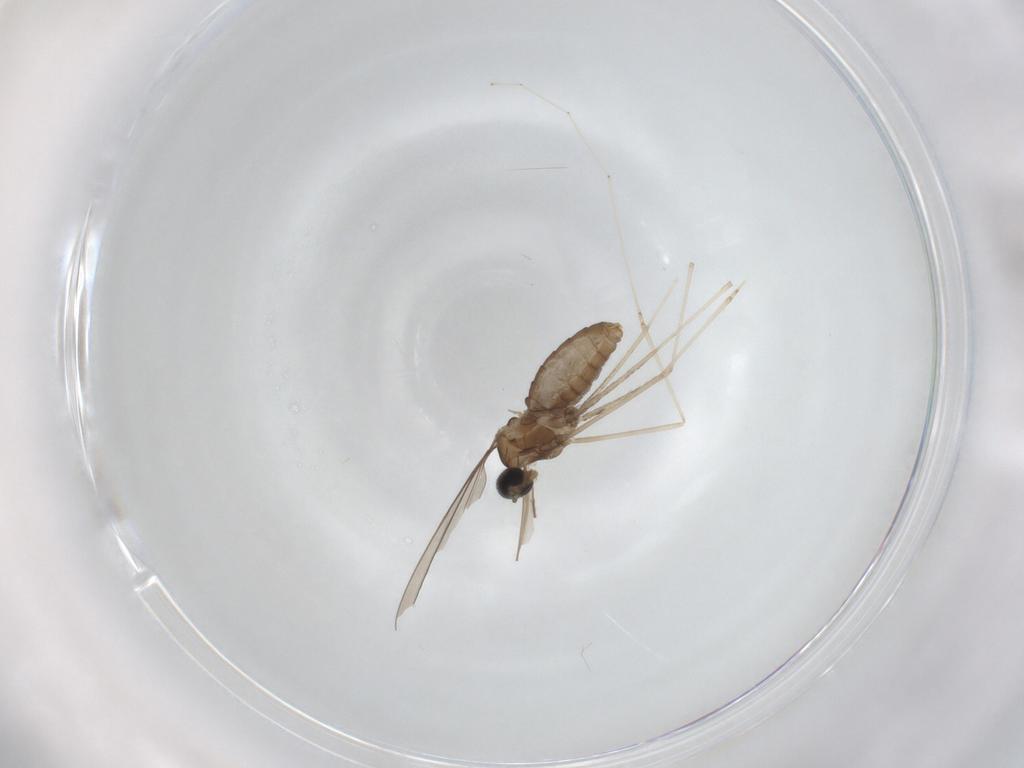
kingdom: Animalia
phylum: Arthropoda
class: Insecta
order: Diptera
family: Cecidomyiidae
